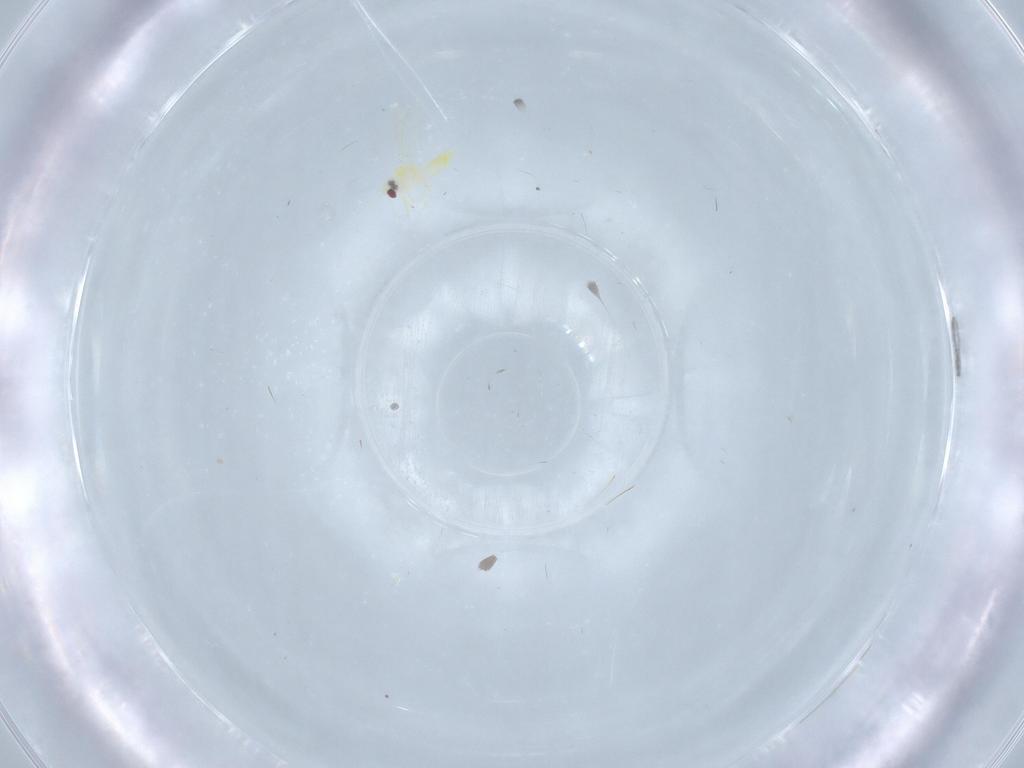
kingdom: Animalia
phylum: Arthropoda
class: Insecta
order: Hemiptera
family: Aleyrodidae
